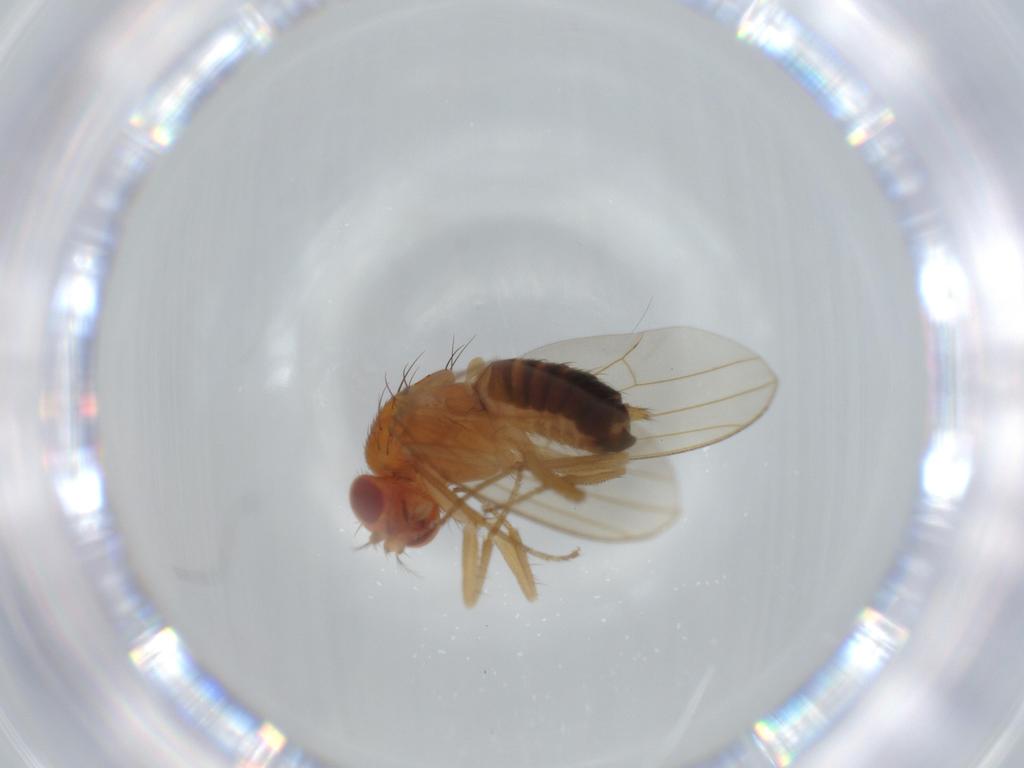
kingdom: Animalia
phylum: Arthropoda
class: Insecta
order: Diptera
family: Drosophilidae
